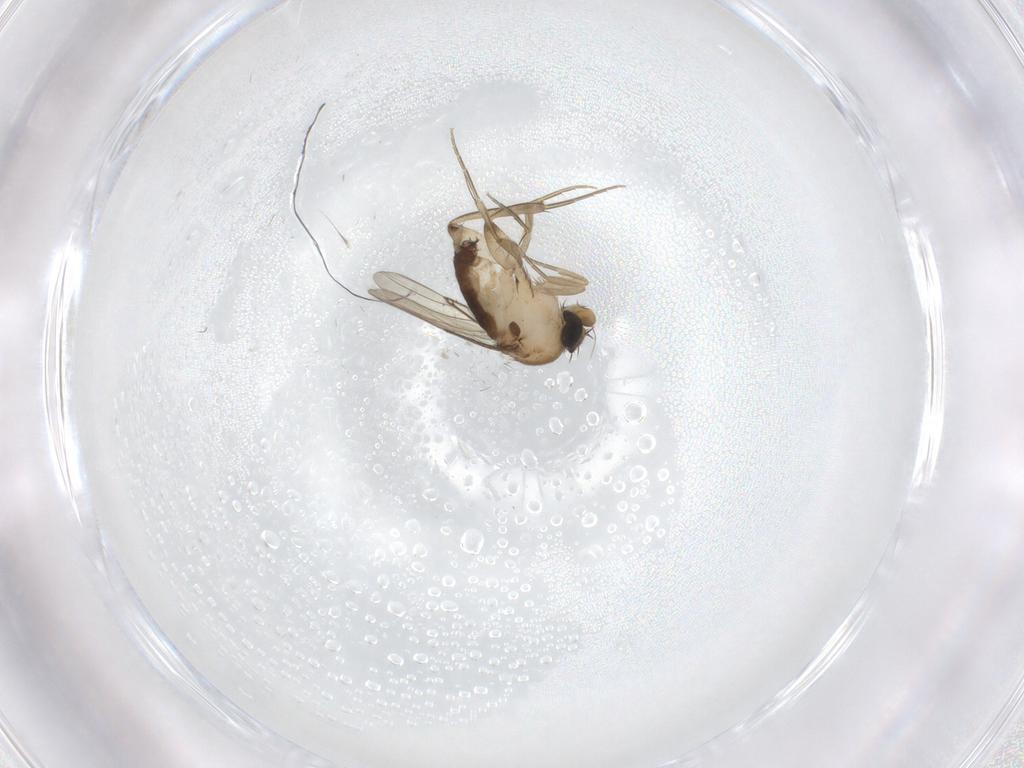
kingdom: Animalia
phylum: Arthropoda
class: Insecta
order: Diptera
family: Phoridae
